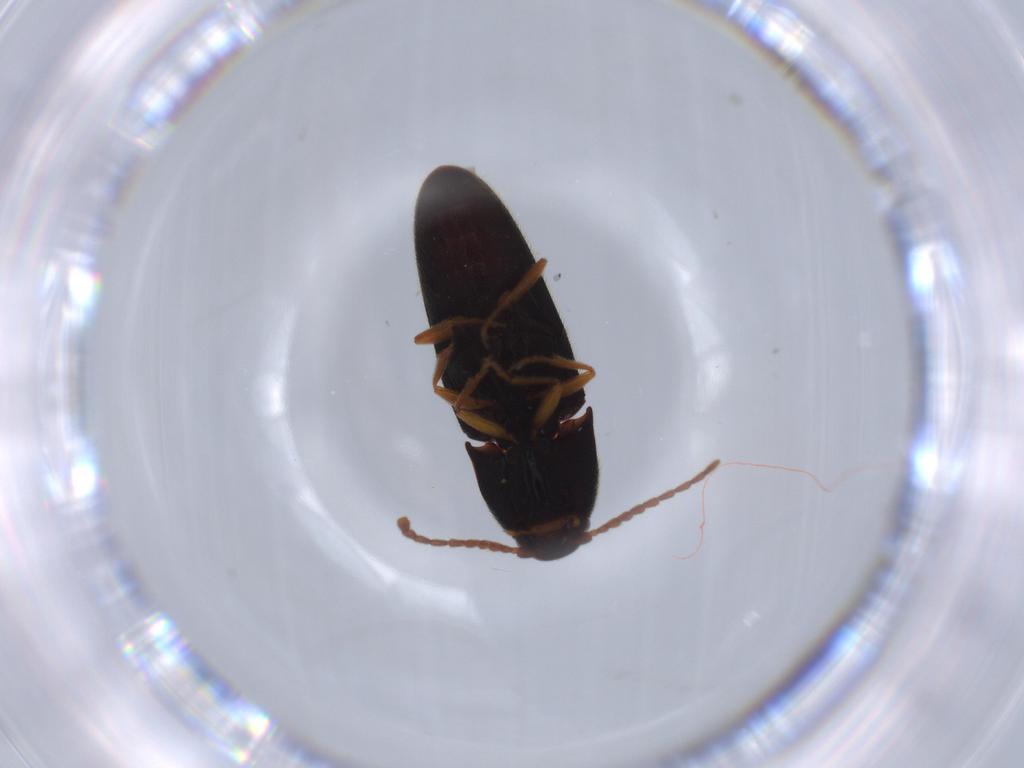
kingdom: Animalia
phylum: Arthropoda
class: Insecta
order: Coleoptera
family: Elateridae
